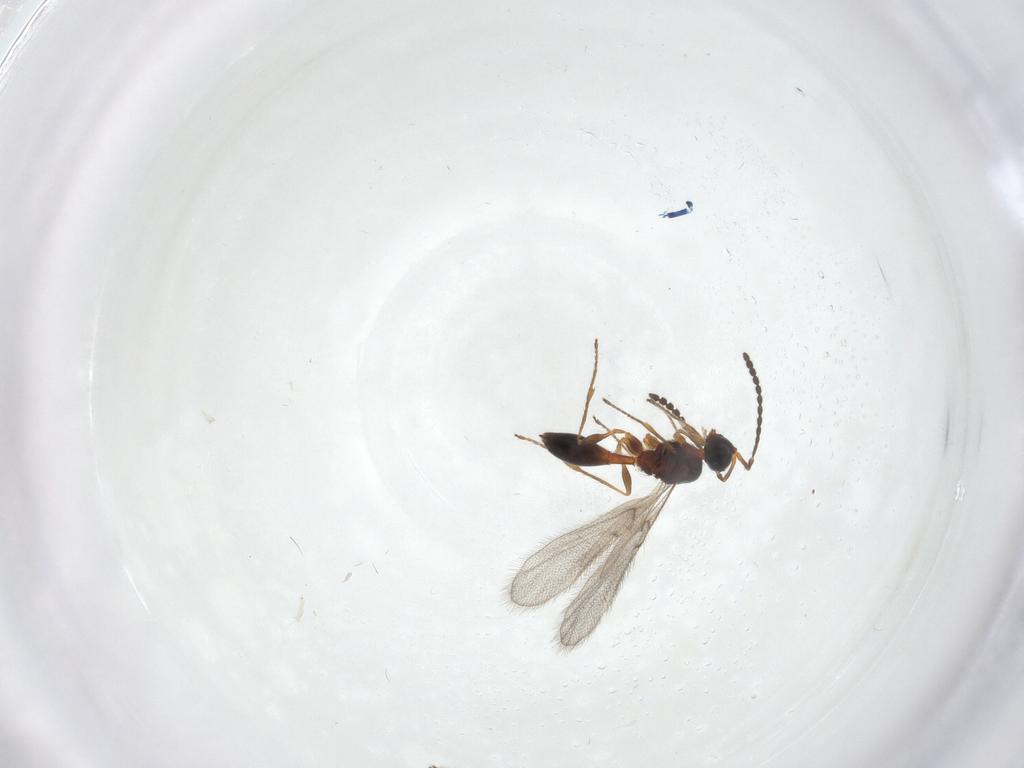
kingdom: Animalia
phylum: Arthropoda
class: Insecta
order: Hymenoptera
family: Diapriidae
